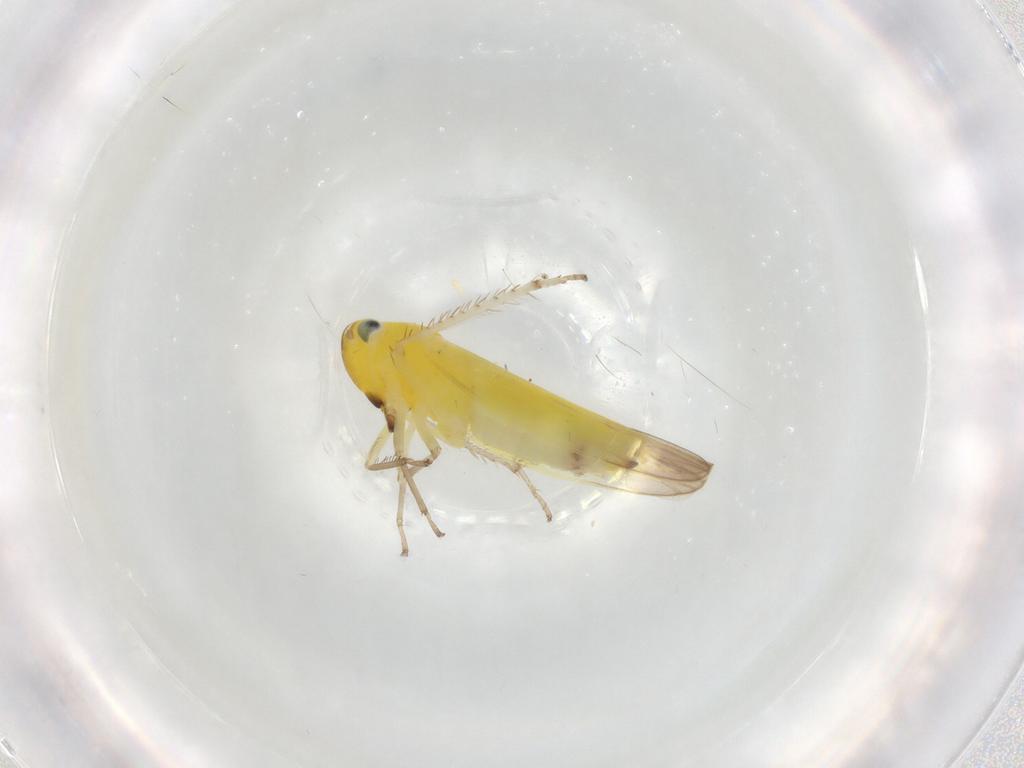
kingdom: Animalia
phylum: Arthropoda
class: Insecta
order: Hemiptera
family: Cicadellidae
